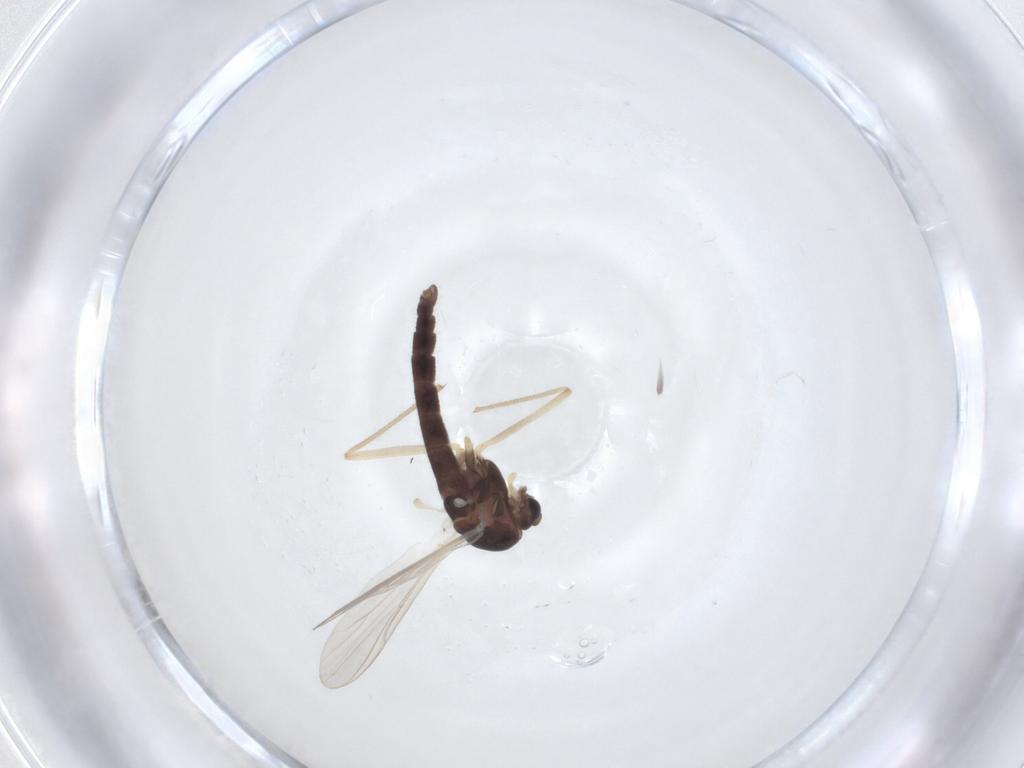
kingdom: Animalia
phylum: Arthropoda
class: Insecta
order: Diptera
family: Chironomidae
